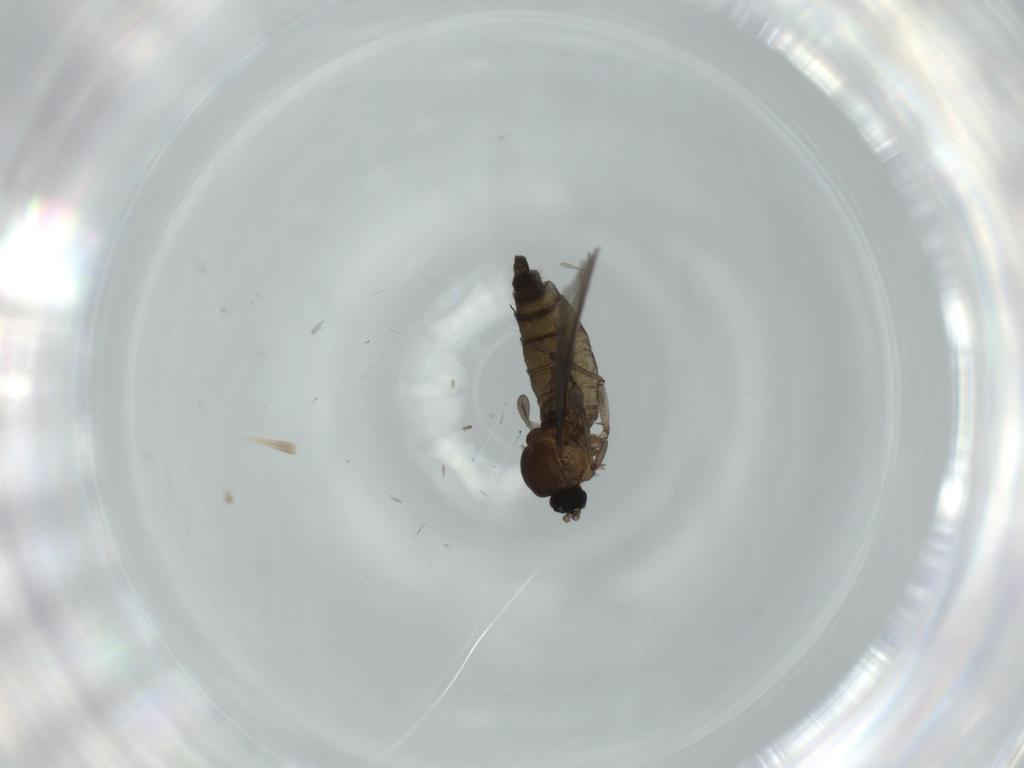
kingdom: Animalia
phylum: Arthropoda
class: Insecta
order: Diptera
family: Sciaridae
